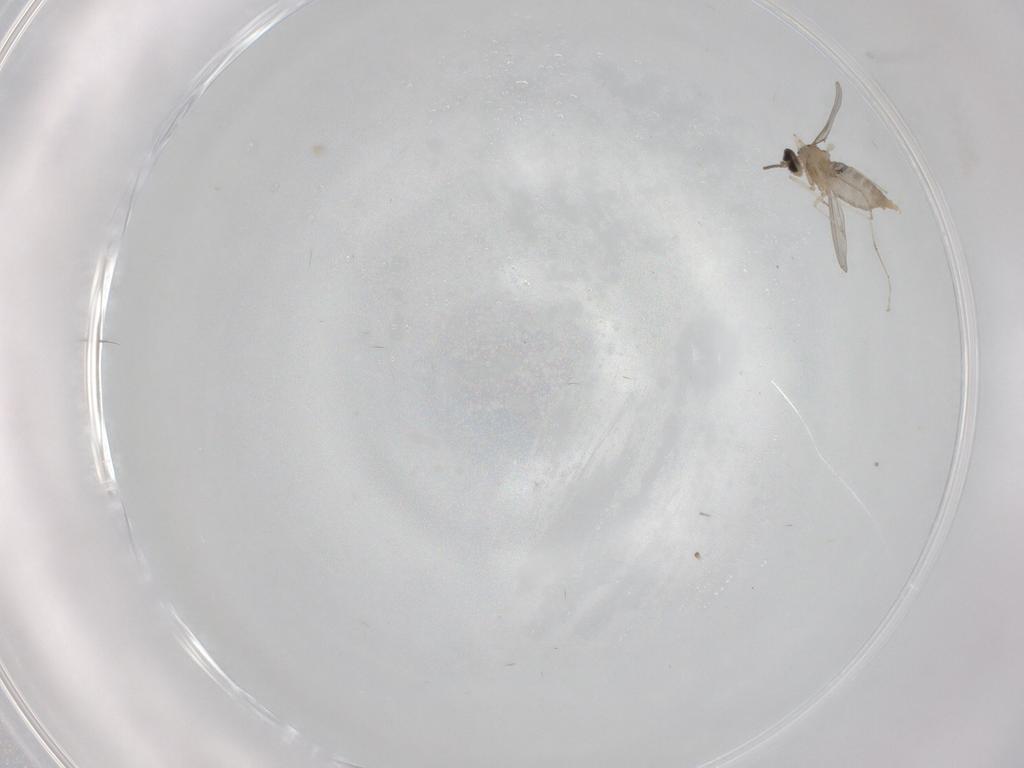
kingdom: Animalia
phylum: Arthropoda
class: Insecta
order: Diptera
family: Cecidomyiidae
